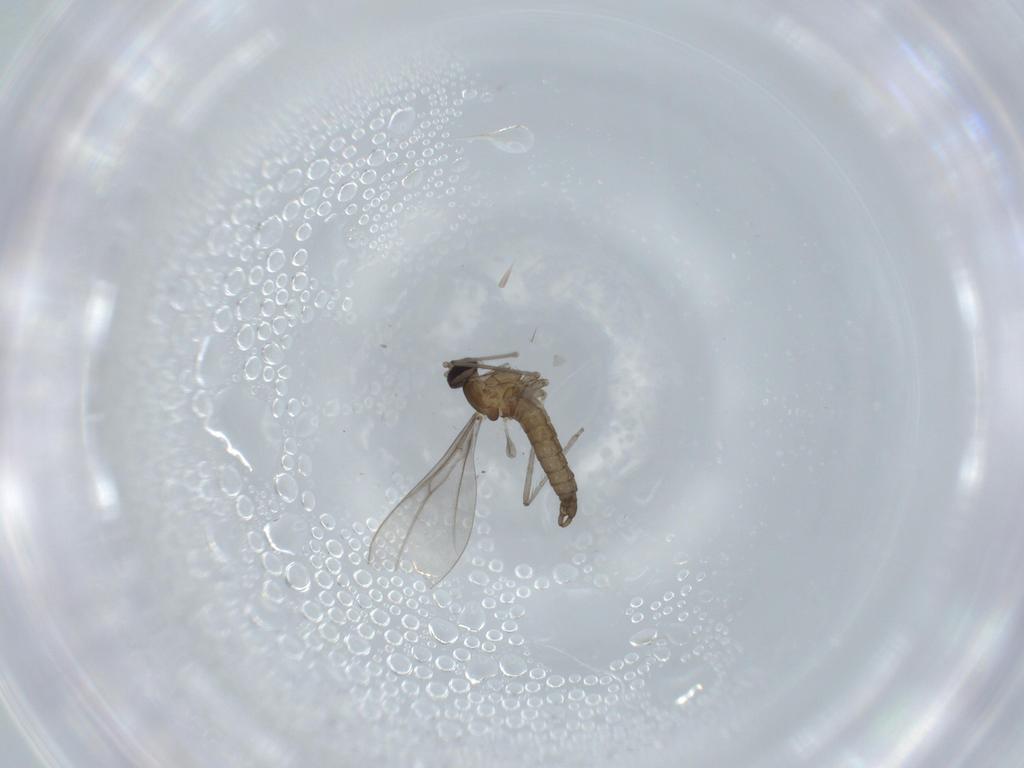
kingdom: Animalia
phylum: Arthropoda
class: Insecta
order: Diptera
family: Cecidomyiidae
